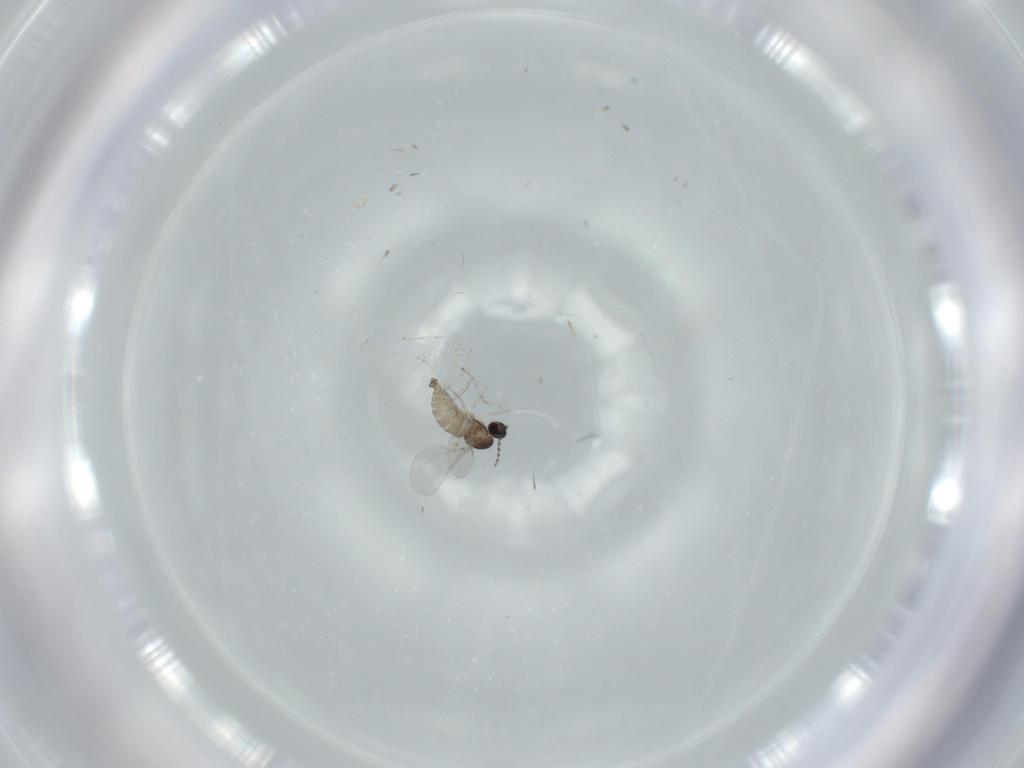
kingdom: Animalia
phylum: Arthropoda
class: Insecta
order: Diptera
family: Cecidomyiidae
